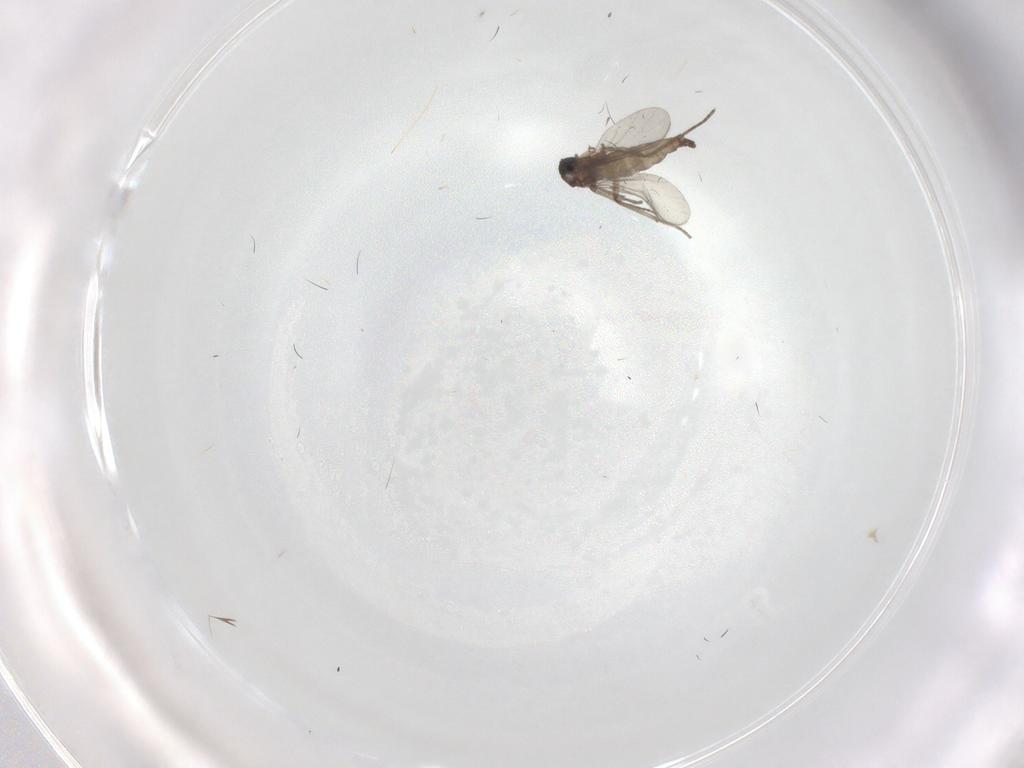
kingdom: Animalia
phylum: Arthropoda
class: Insecta
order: Diptera
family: Sciaridae
